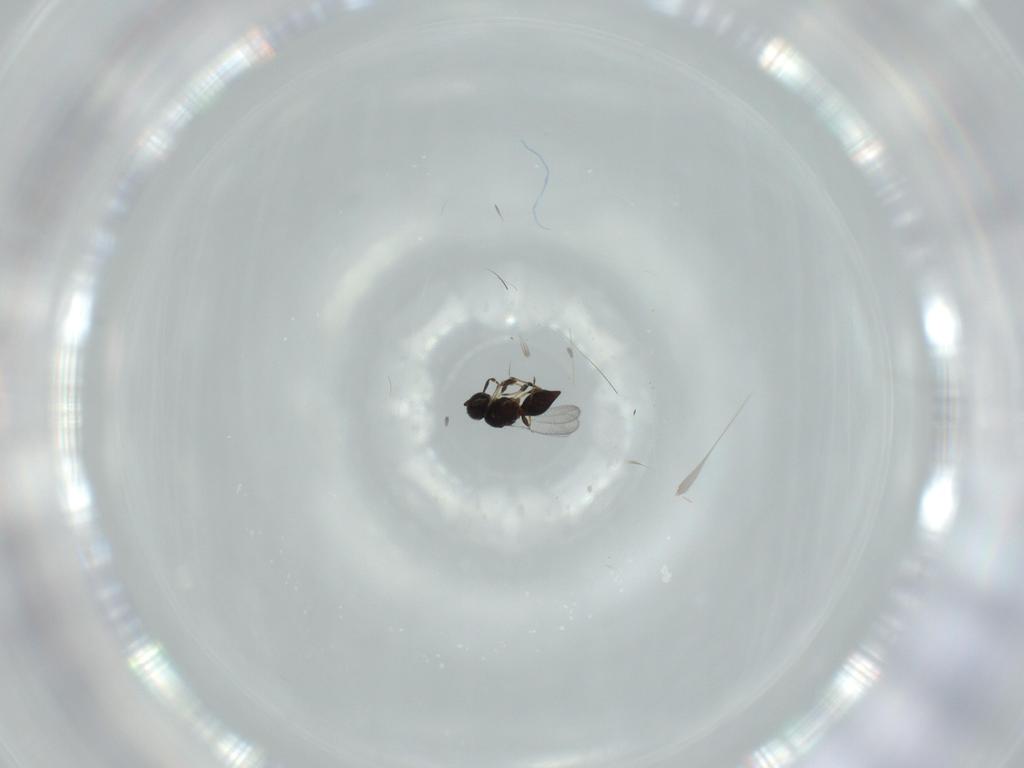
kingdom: Animalia
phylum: Arthropoda
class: Insecta
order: Hymenoptera
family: Platygastridae
